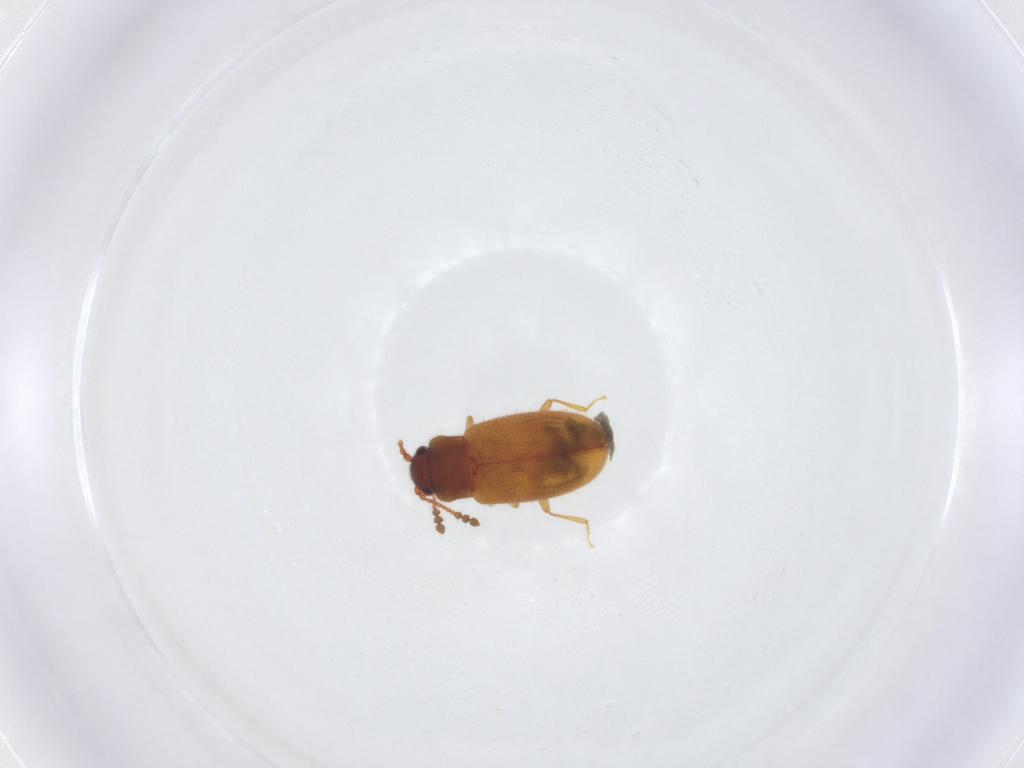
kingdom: Animalia
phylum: Arthropoda
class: Insecta
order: Coleoptera
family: Cryptophagidae
